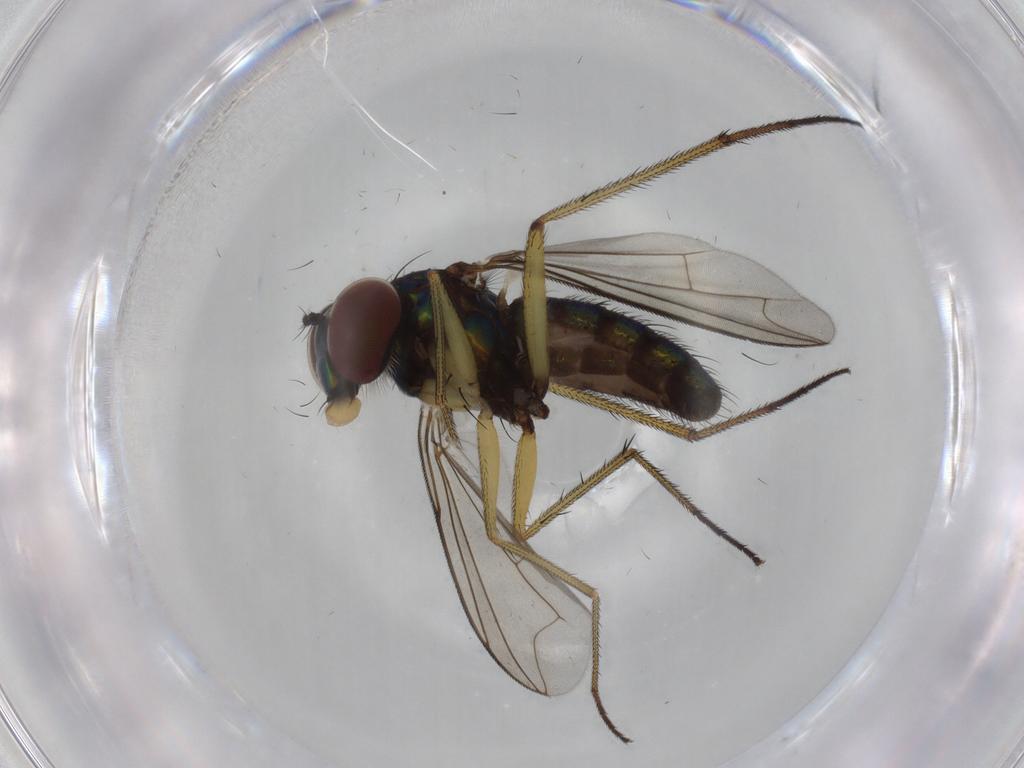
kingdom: Animalia
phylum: Arthropoda
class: Insecta
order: Diptera
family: Dolichopodidae
